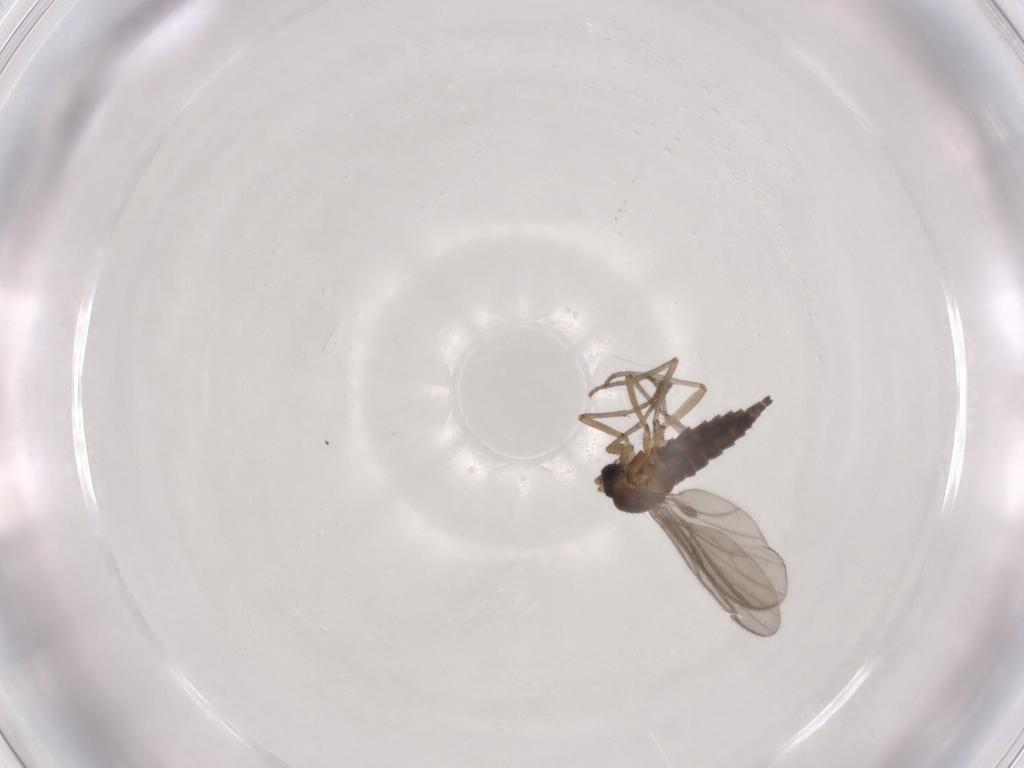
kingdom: Animalia
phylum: Arthropoda
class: Insecta
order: Diptera
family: Sciaridae
